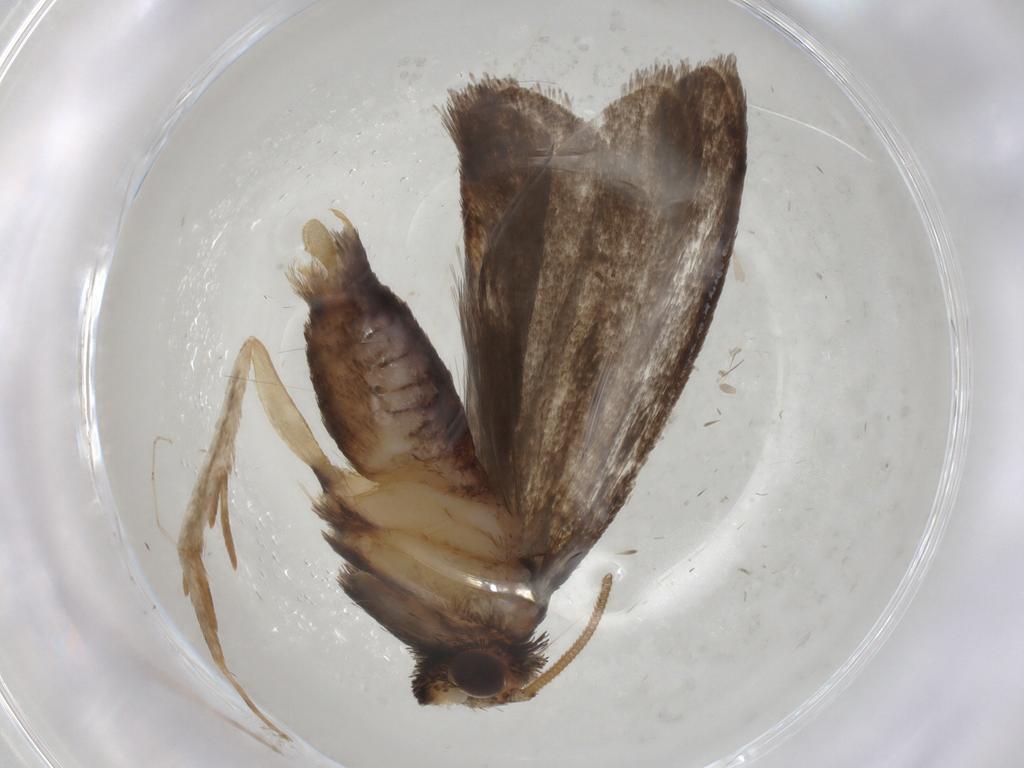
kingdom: Animalia
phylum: Arthropoda
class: Insecta
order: Lepidoptera
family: Tineidae
